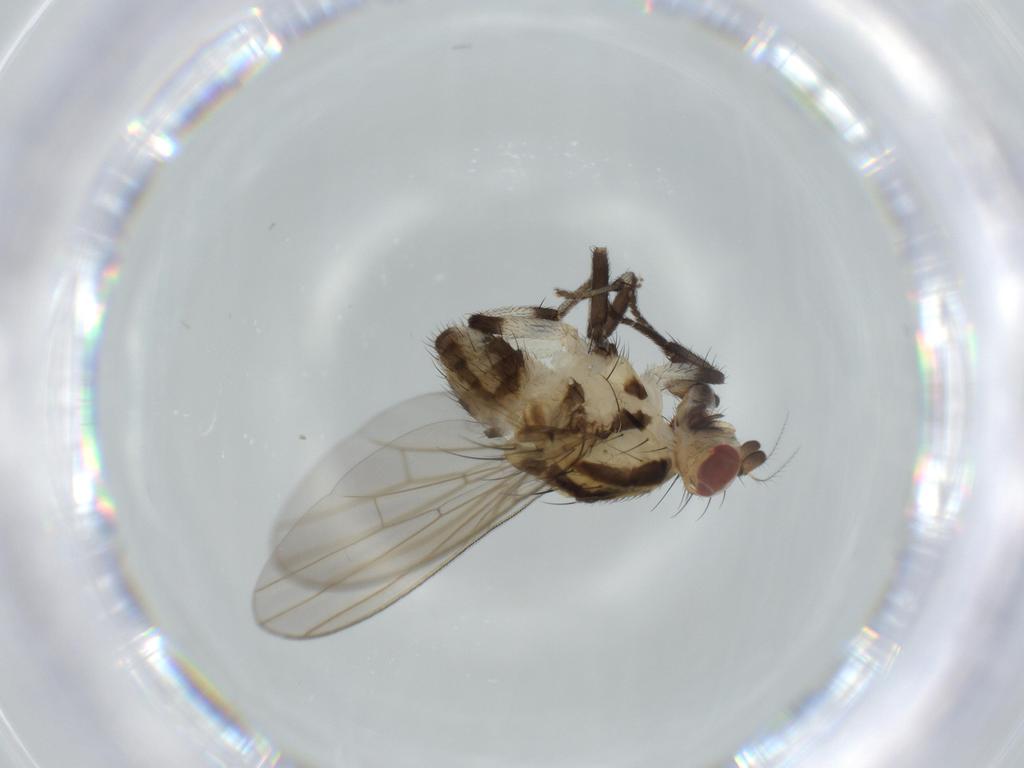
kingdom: Animalia
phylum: Arthropoda
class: Insecta
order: Diptera
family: Lauxaniidae
